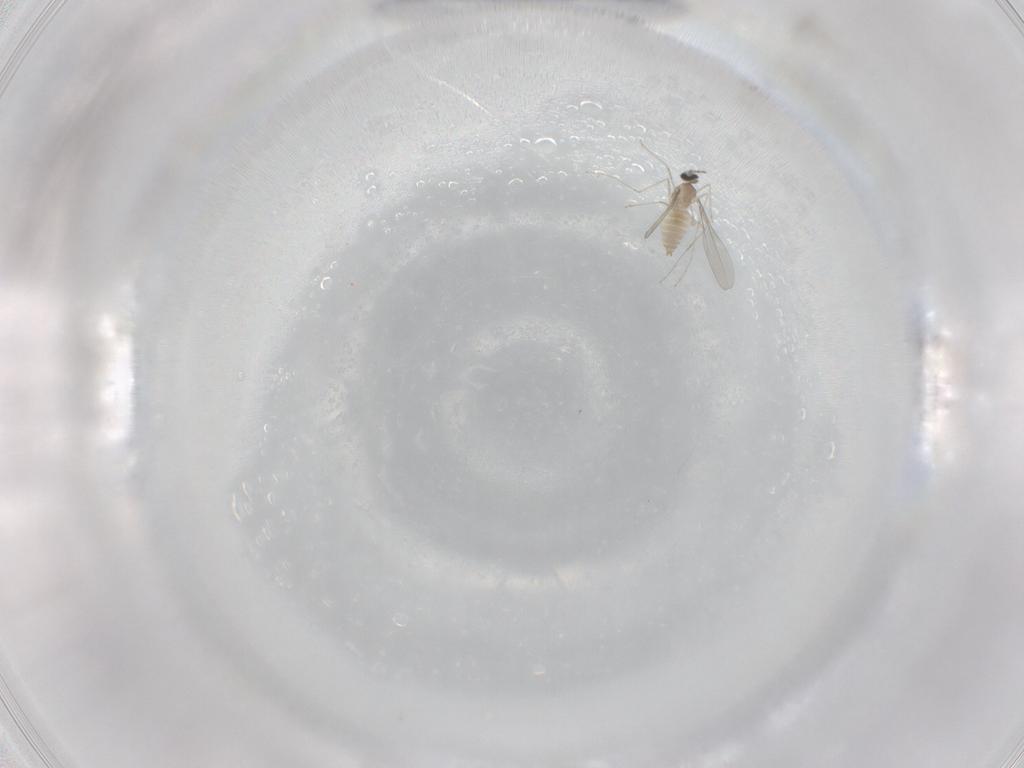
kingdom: Animalia
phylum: Arthropoda
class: Insecta
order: Diptera
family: Cecidomyiidae
